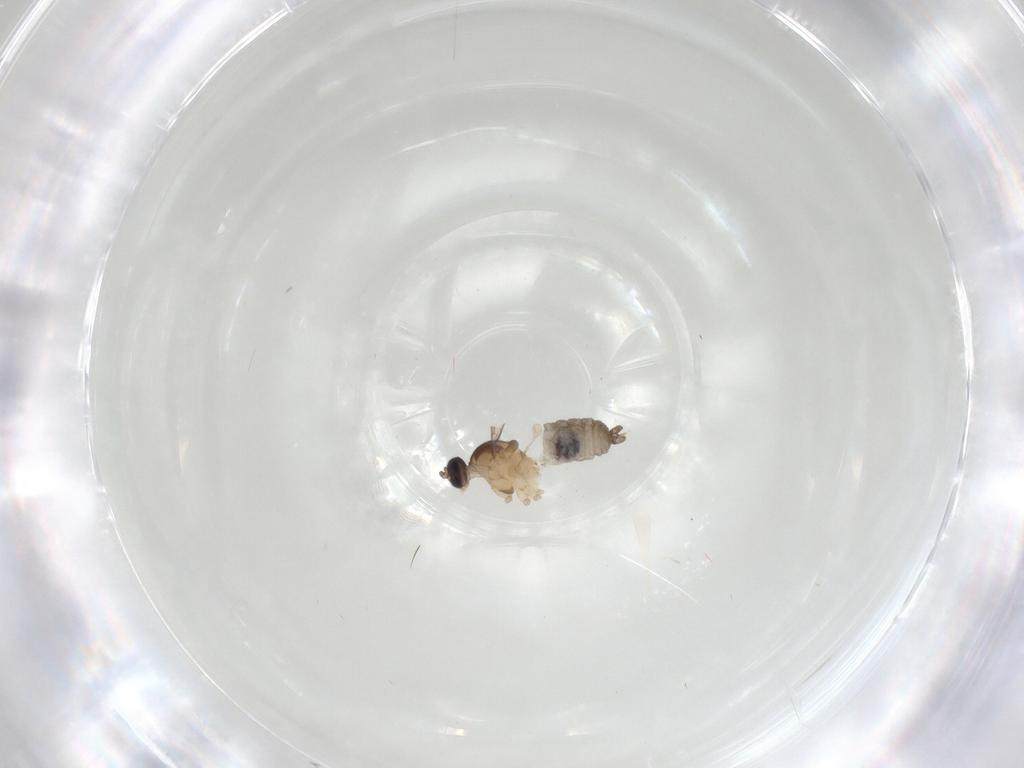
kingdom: Animalia
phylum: Arthropoda
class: Insecta
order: Diptera
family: Cecidomyiidae
